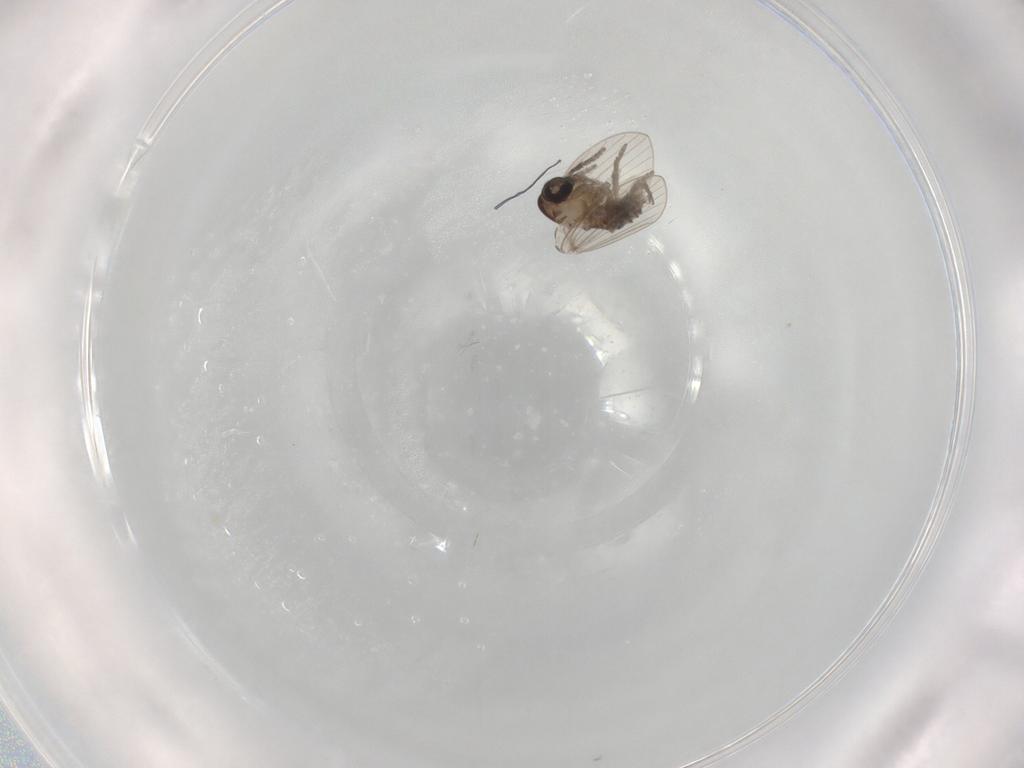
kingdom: Animalia
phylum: Arthropoda
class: Insecta
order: Diptera
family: Psychodidae
